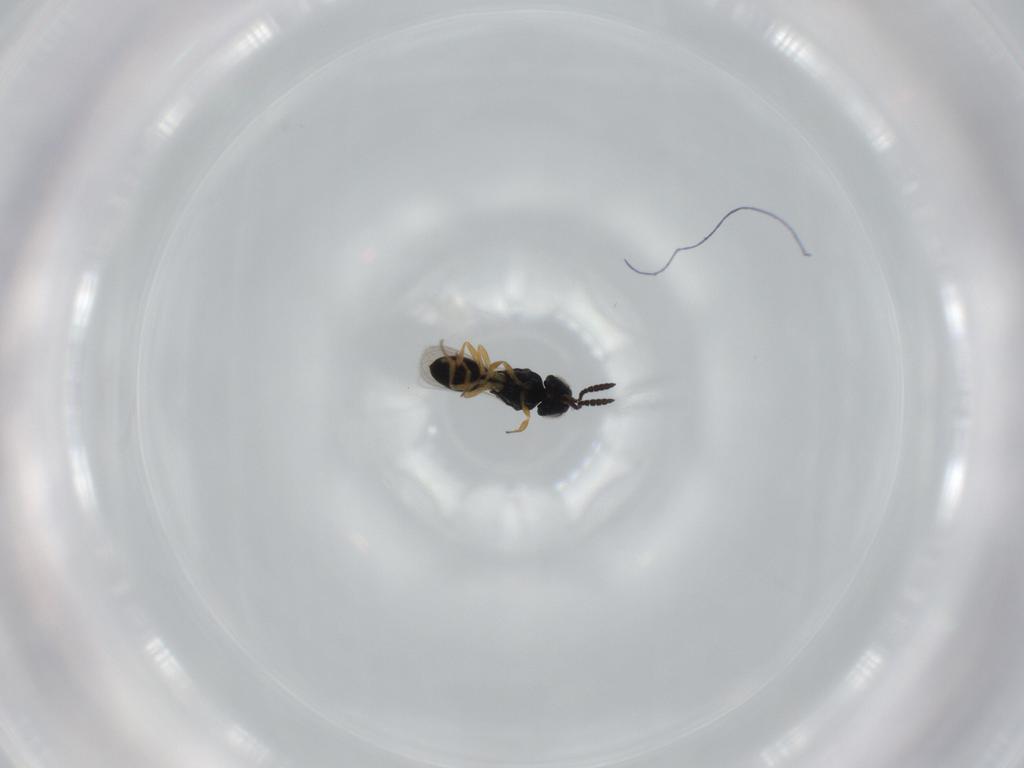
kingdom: Animalia
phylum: Arthropoda
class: Insecta
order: Hymenoptera
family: Scelionidae
